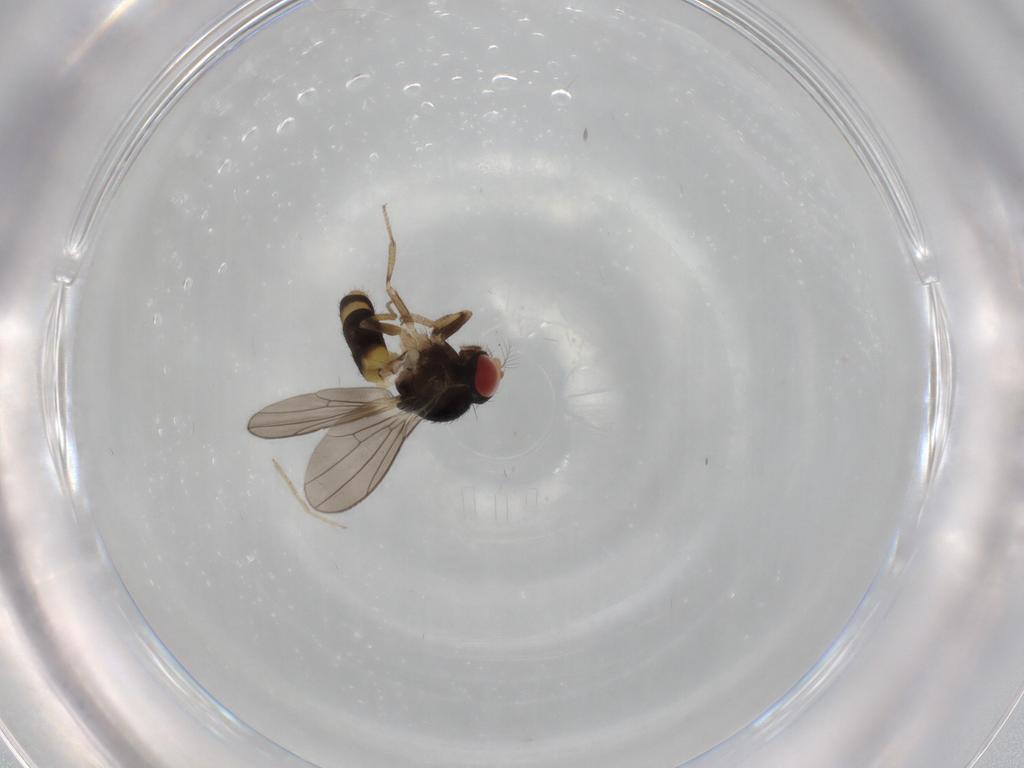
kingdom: Animalia
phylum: Arthropoda
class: Insecta
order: Diptera
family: Drosophilidae
